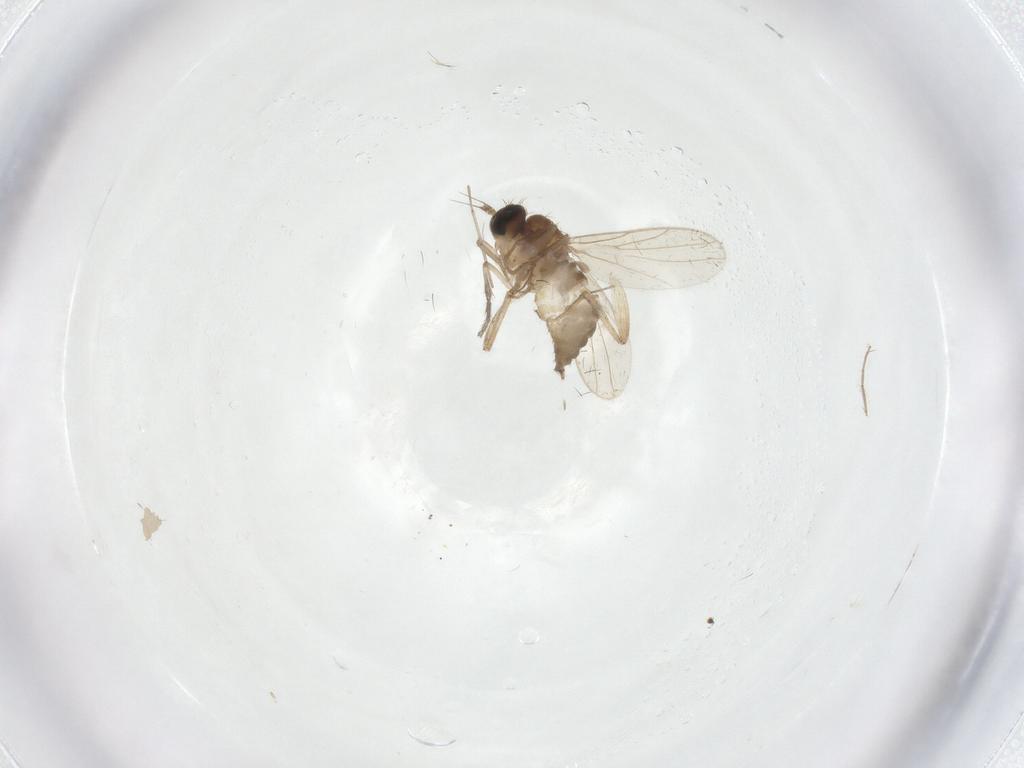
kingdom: Animalia
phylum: Arthropoda
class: Insecta
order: Diptera
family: Hybotidae
